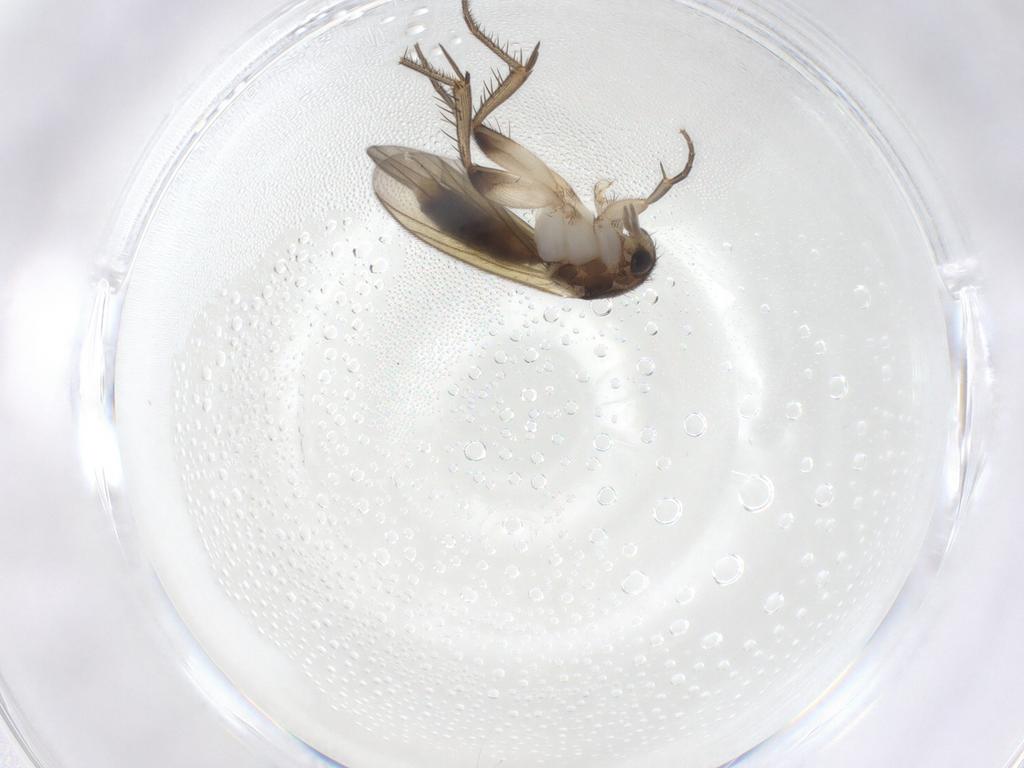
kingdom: Animalia
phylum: Arthropoda
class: Insecta
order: Diptera
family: Mycetophilidae
